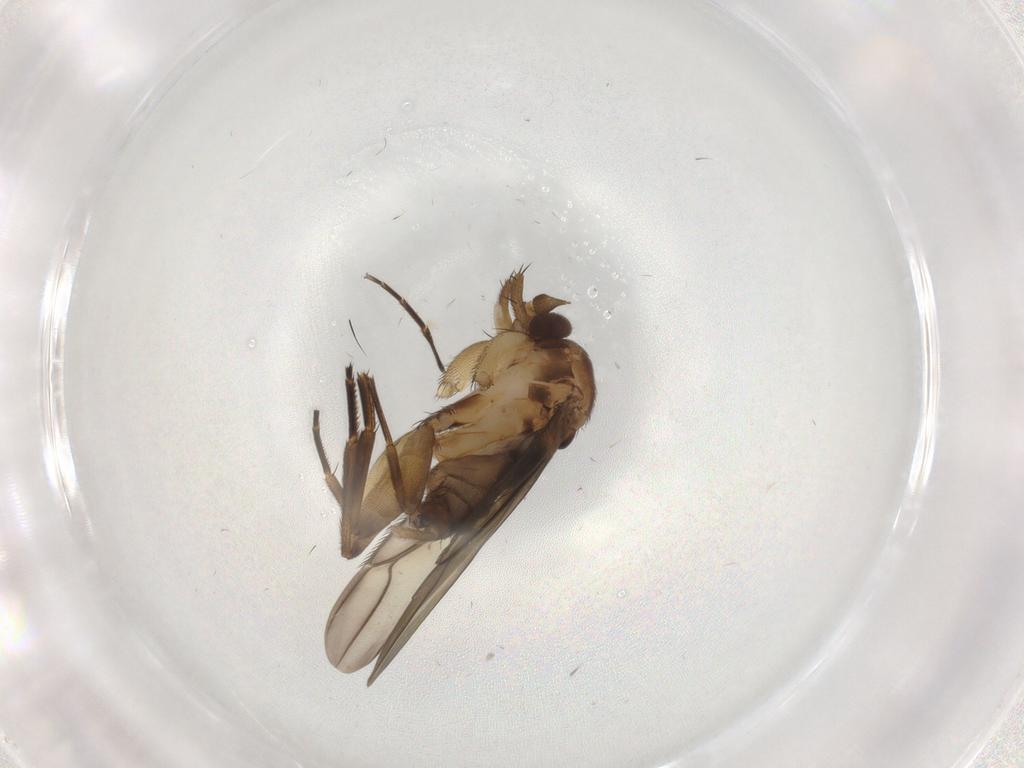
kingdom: Animalia
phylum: Arthropoda
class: Insecta
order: Diptera
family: Phoridae
